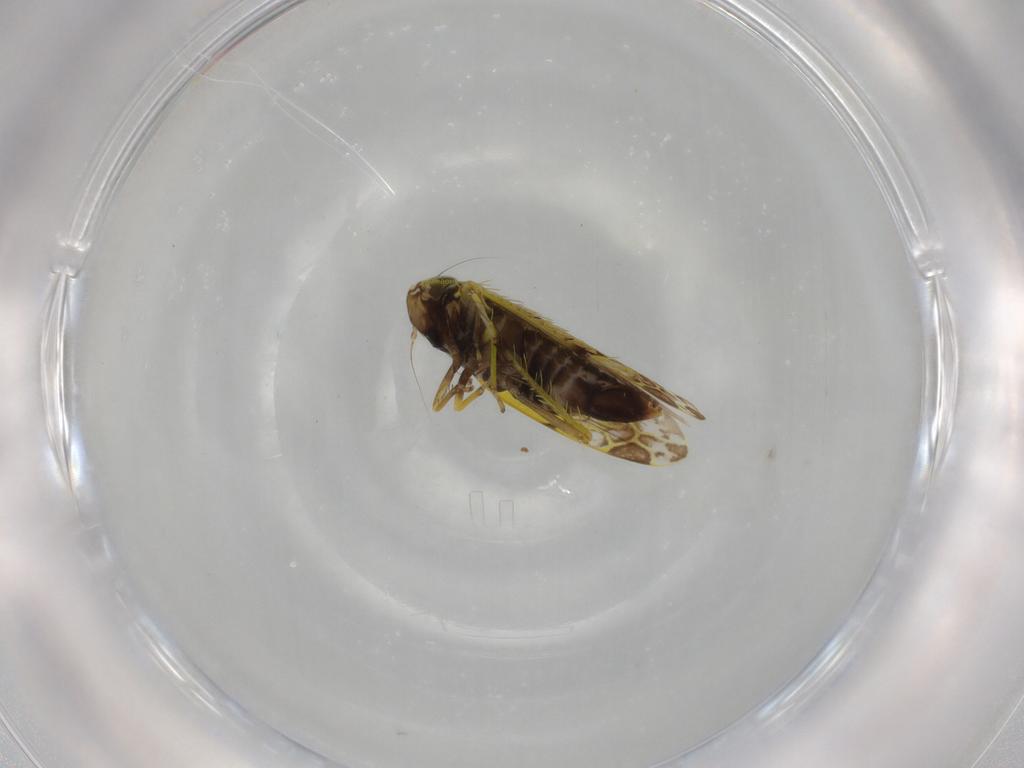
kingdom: Animalia
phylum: Arthropoda
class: Insecta
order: Hemiptera
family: Cicadellidae
